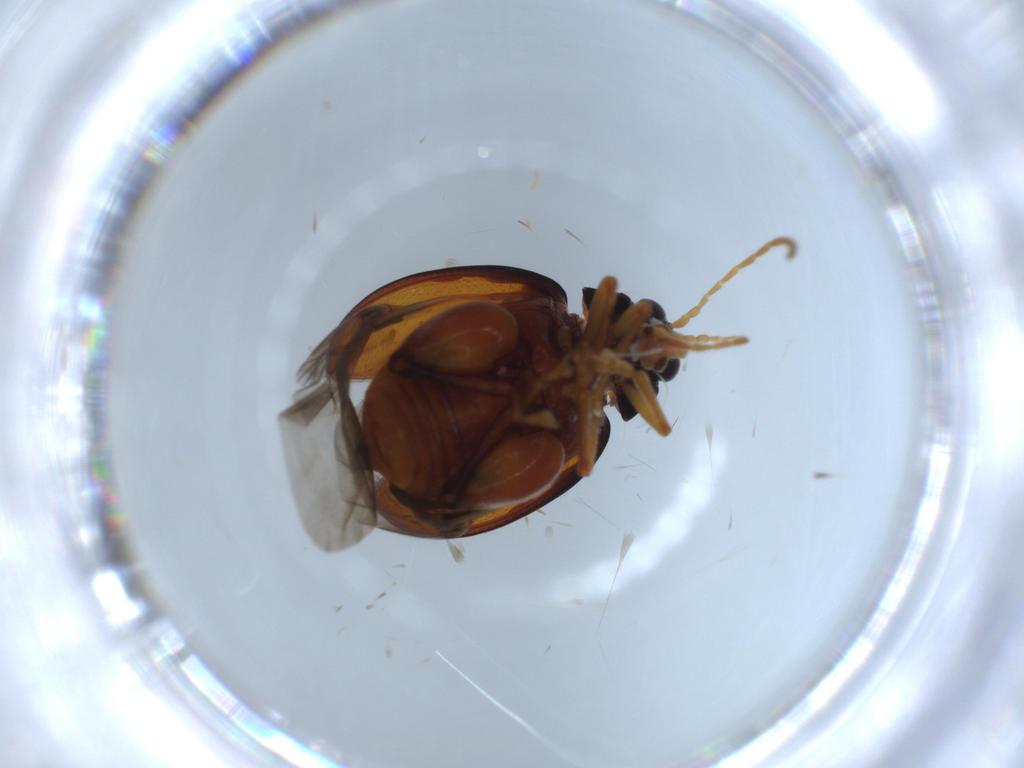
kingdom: Animalia
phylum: Arthropoda
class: Insecta
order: Coleoptera
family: Chrysomelidae
